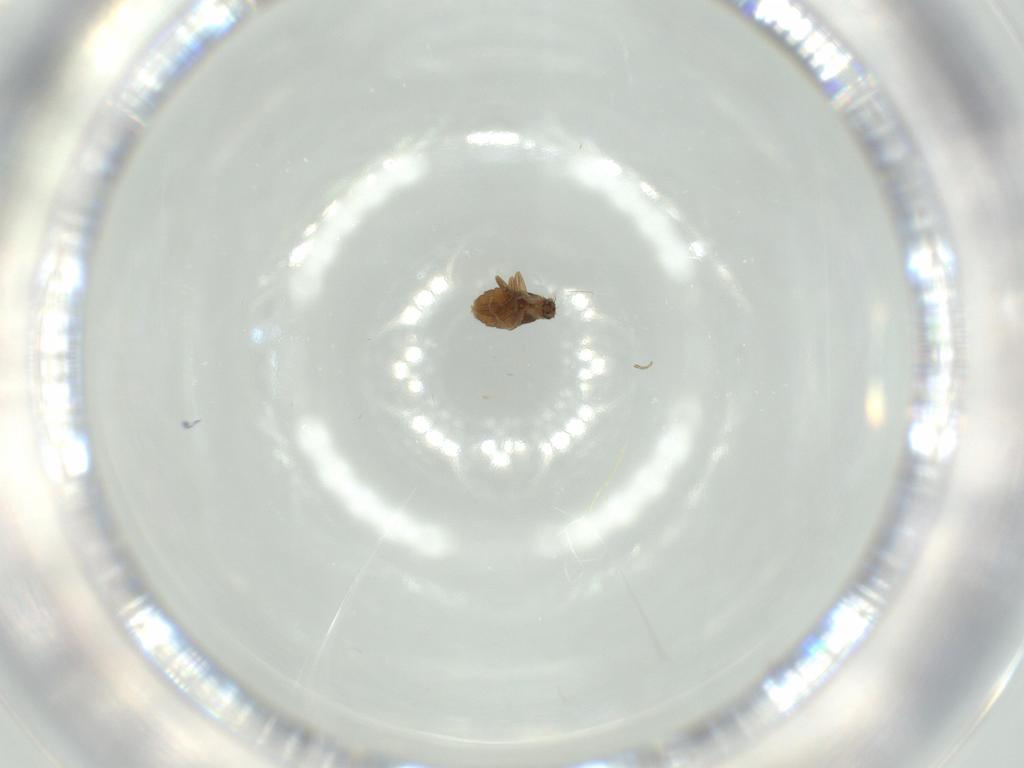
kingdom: Animalia
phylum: Arthropoda
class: Insecta
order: Diptera
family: Phoridae
